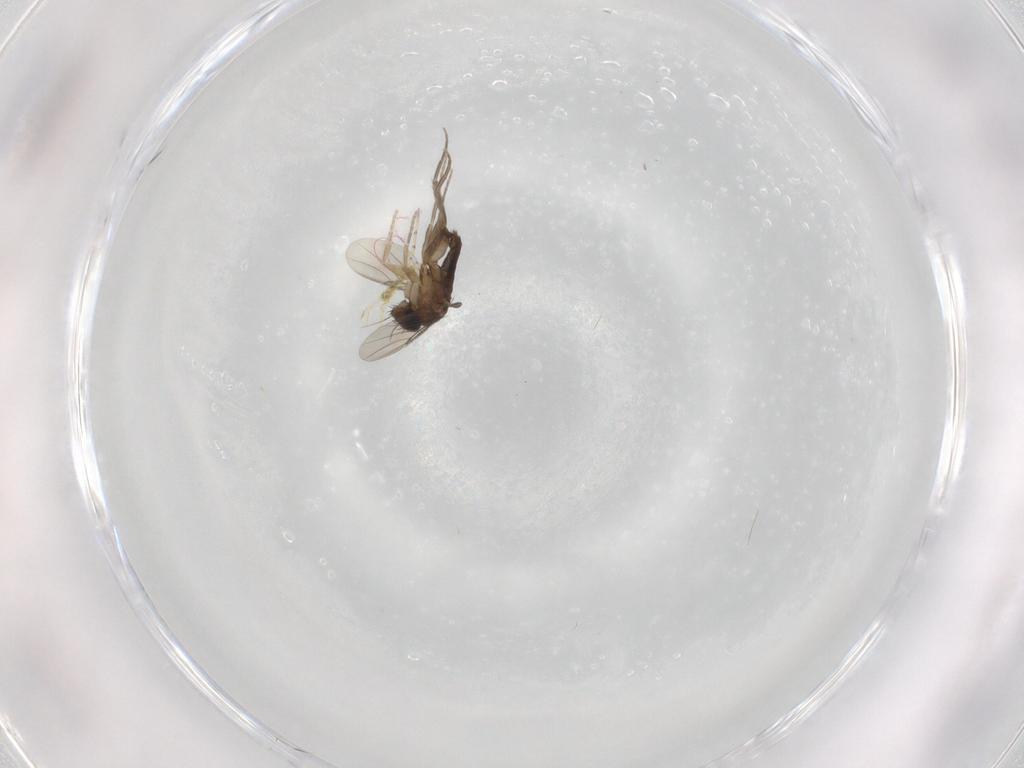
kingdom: Animalia
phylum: Arthropoda
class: Insecta
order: Diptera
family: Phoridae
